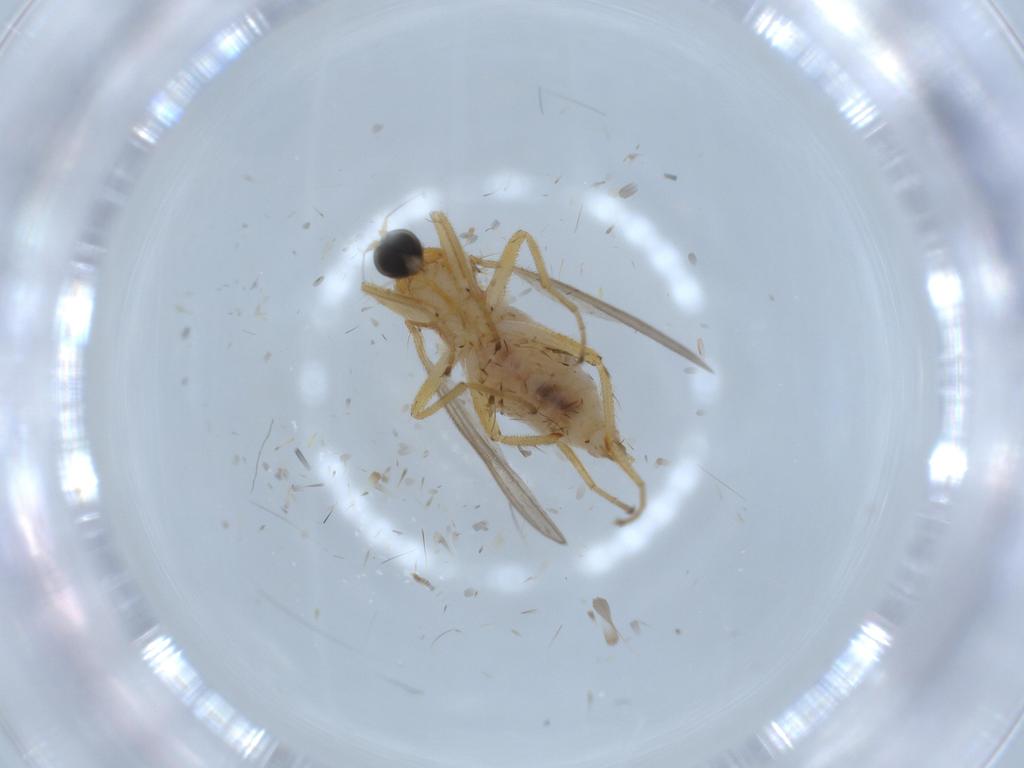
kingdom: Animalia
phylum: Arthropoda
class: Insecta
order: Diptera
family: Hybotidae
